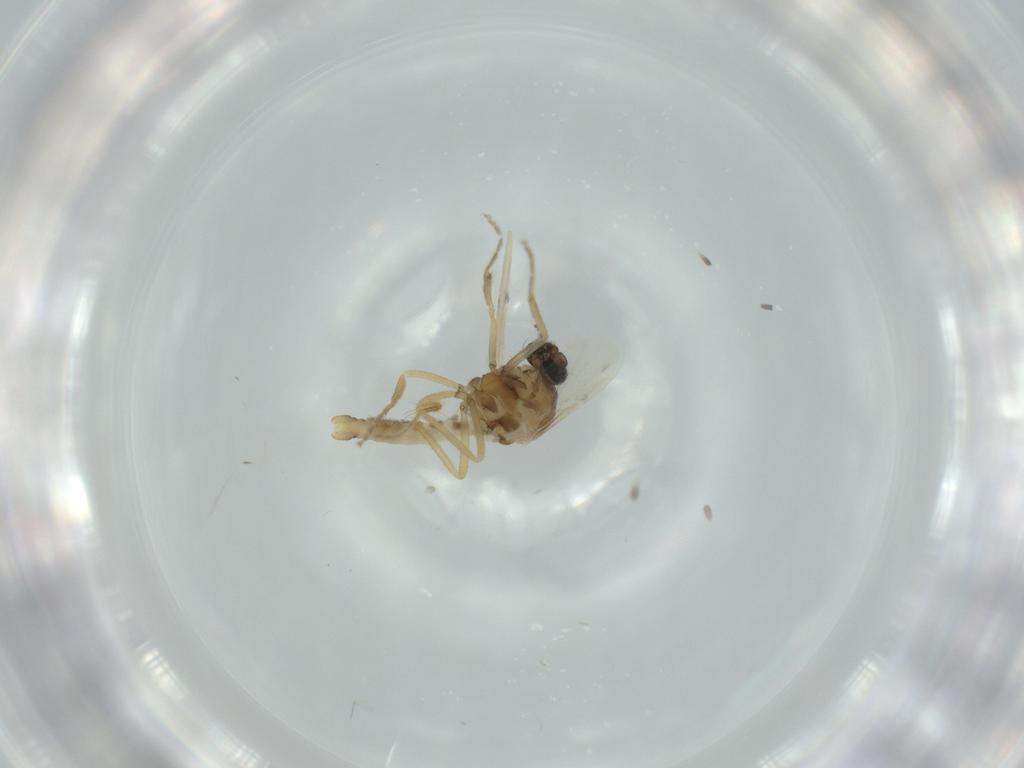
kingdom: Animalia
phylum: Arthropoda
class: Insecta
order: Diptera
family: Ceratopogonidae
